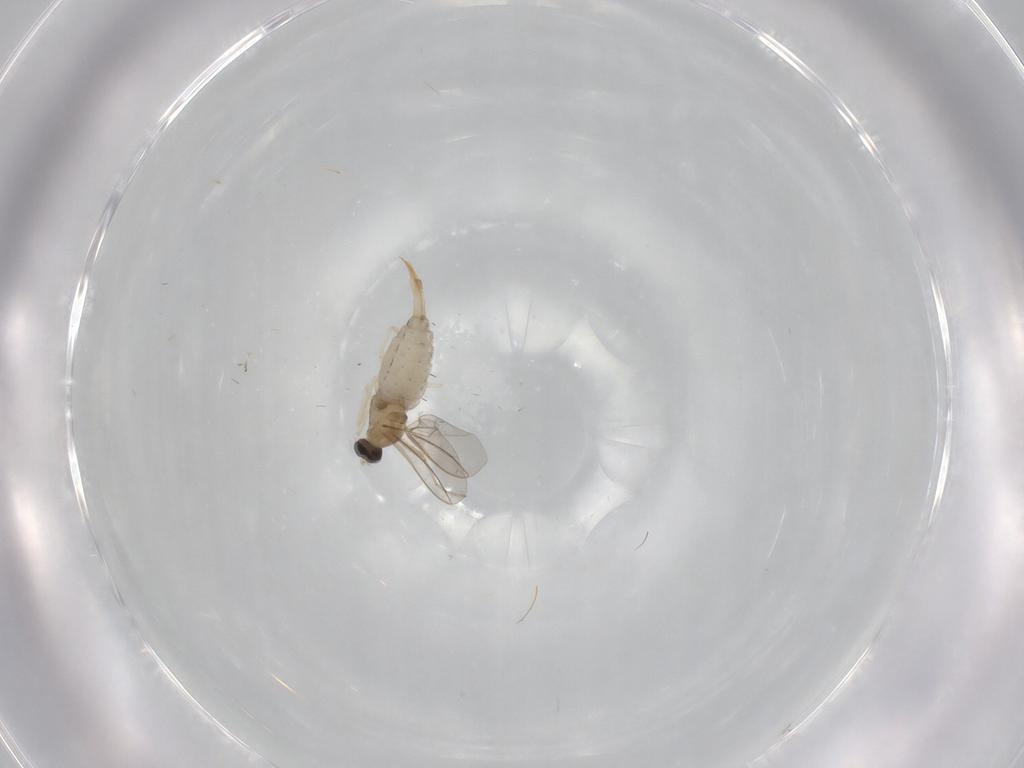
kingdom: Animalia
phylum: Arthropoda
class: Insecta
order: Diptera
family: Cecidomyiidae
